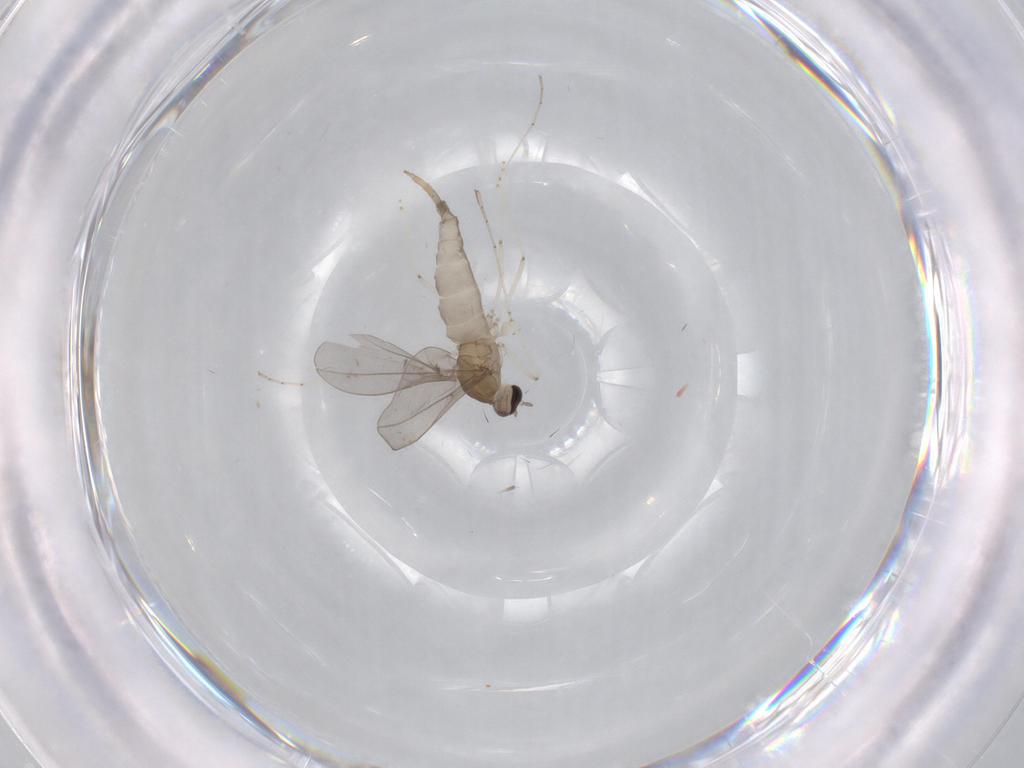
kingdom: Animalia
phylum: Arthropoda
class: Insecta
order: Diptera
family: Cecidomyiidae
